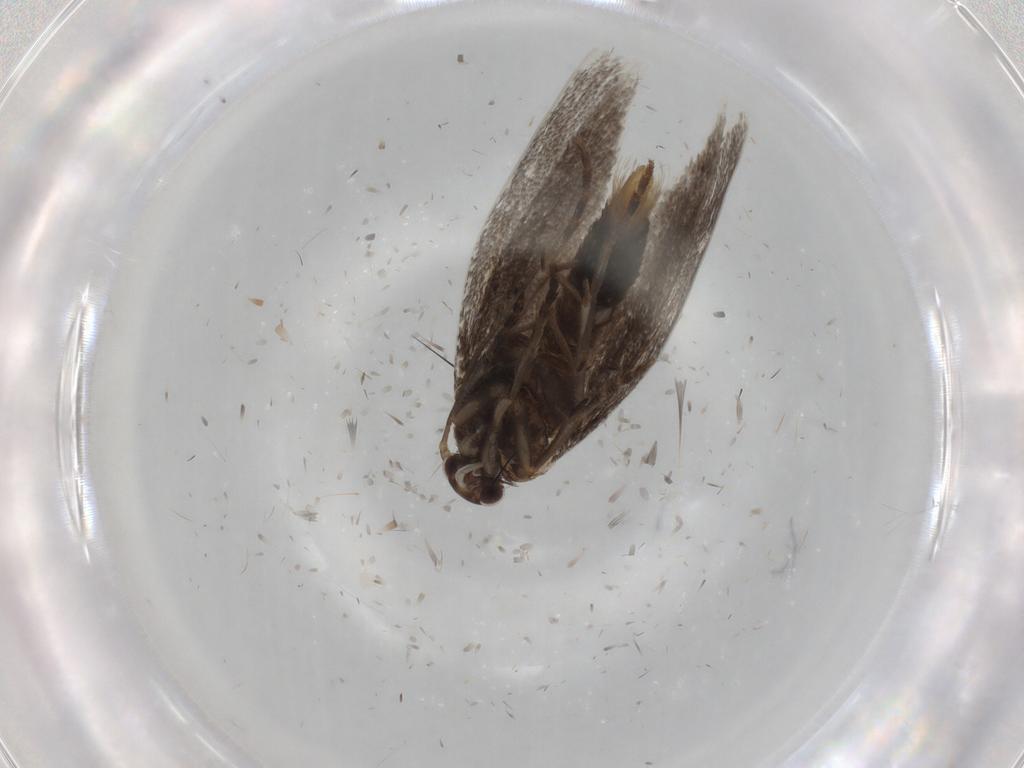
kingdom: Animalia
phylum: Arthropoda
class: Insecta
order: Lepidoptera
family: Elachistidae
